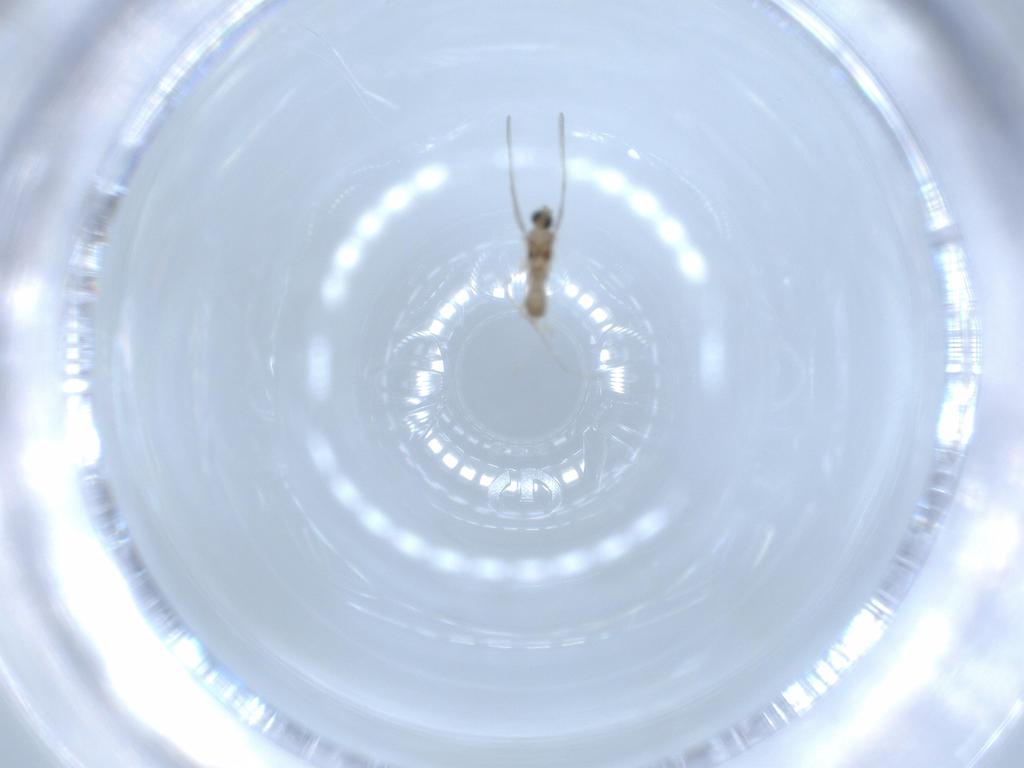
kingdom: Animalia
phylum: Arthropoda
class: Insecta
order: Diptera
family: Cecidomyiidae
